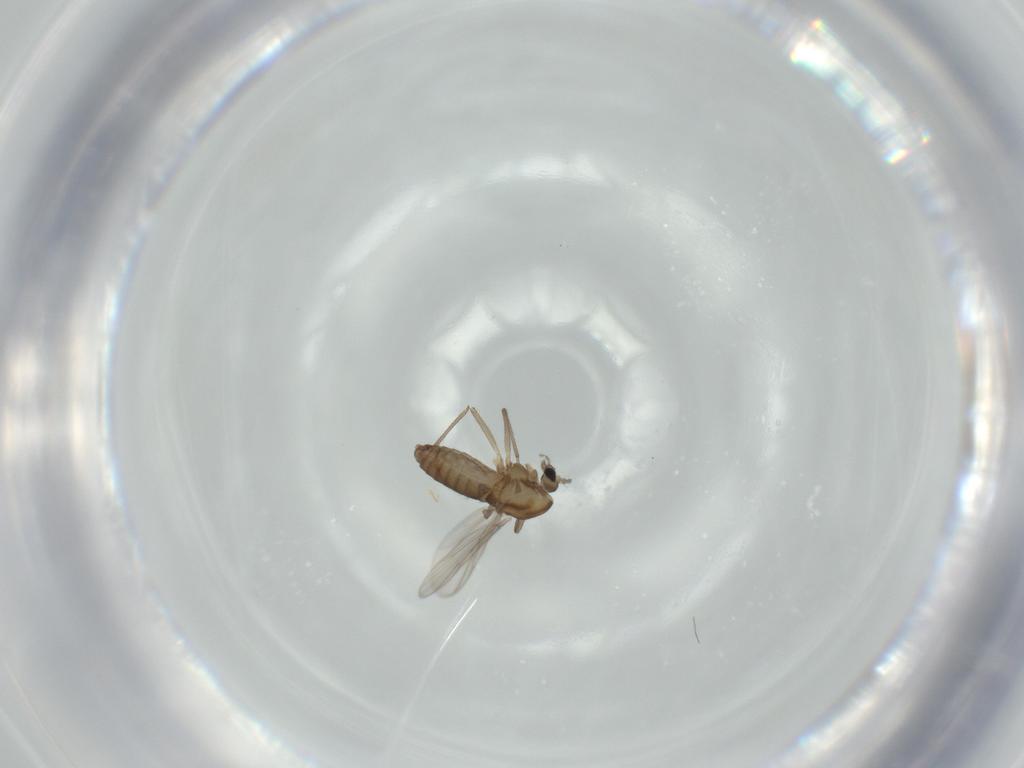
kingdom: Animalia
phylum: Arthropoda
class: Insecta
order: Diptera
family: Chironomidae
